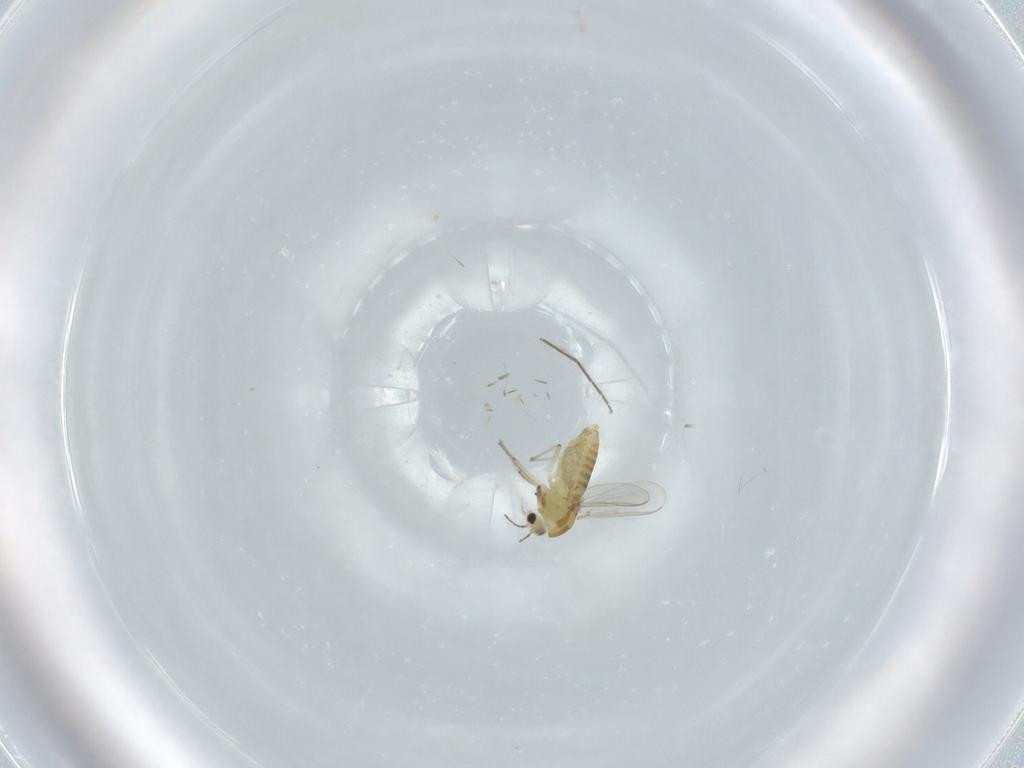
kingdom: Animalia
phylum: Arthropoda
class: Insecta
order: Diptera
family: Chironomidae
